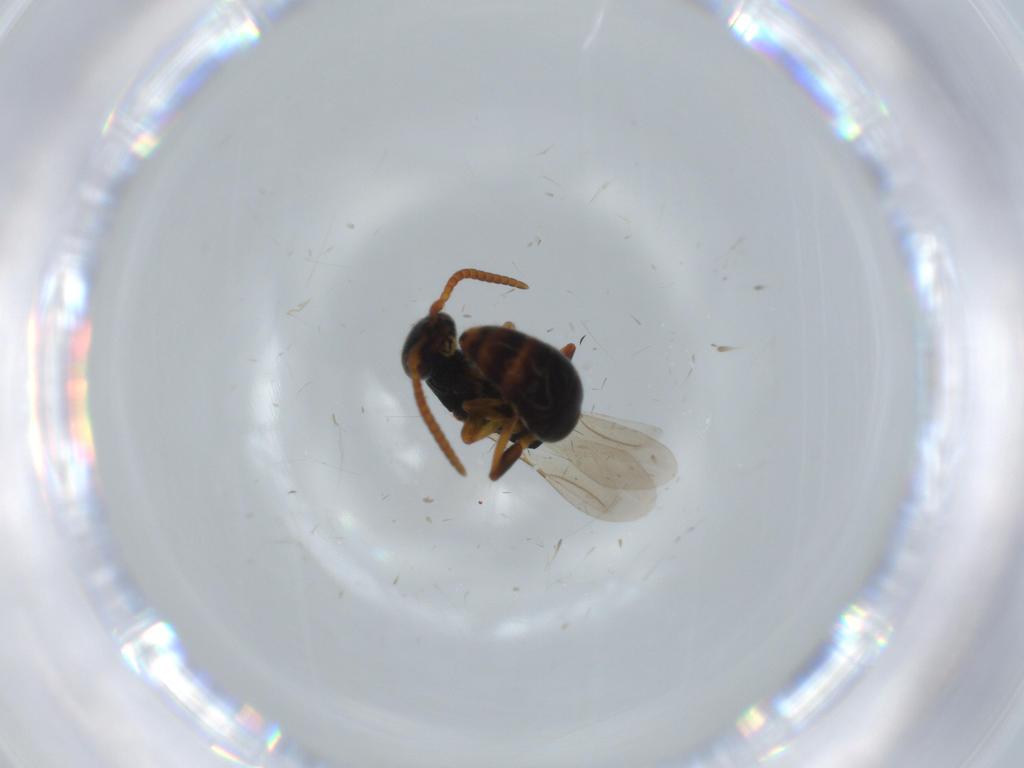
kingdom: Animalia
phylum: Arthropoda
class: Insecta
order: Hymenoptera
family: Bethylidae
